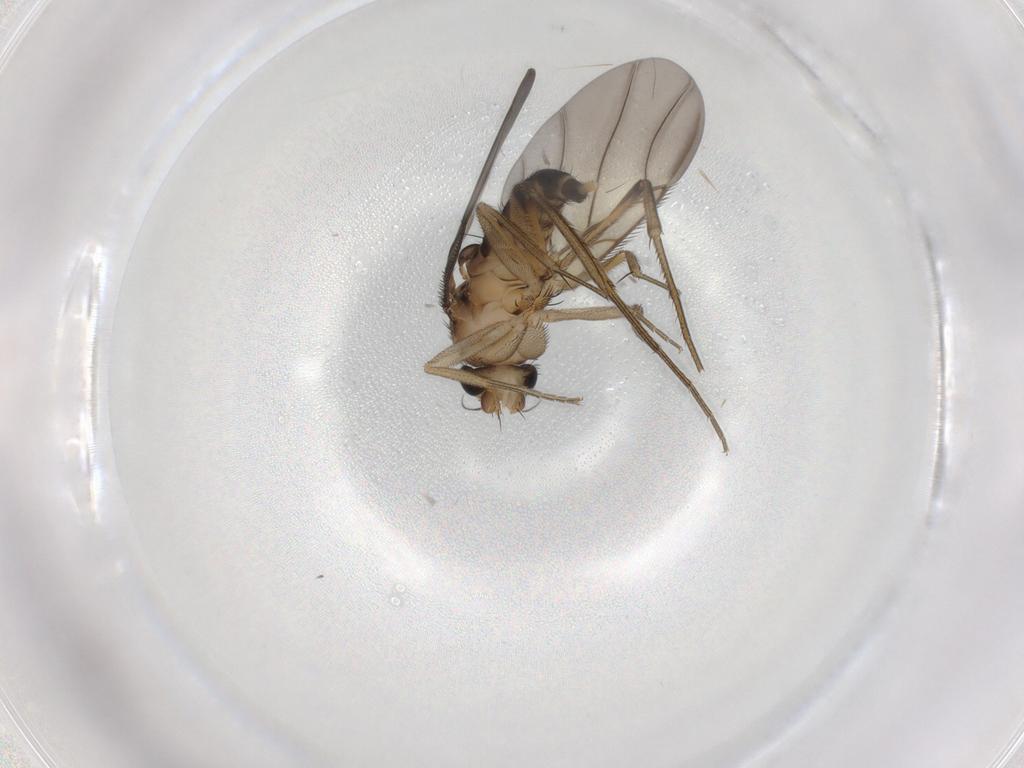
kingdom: Animalia
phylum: Arthropoda
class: Insecta
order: Diptera
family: Phoridae
